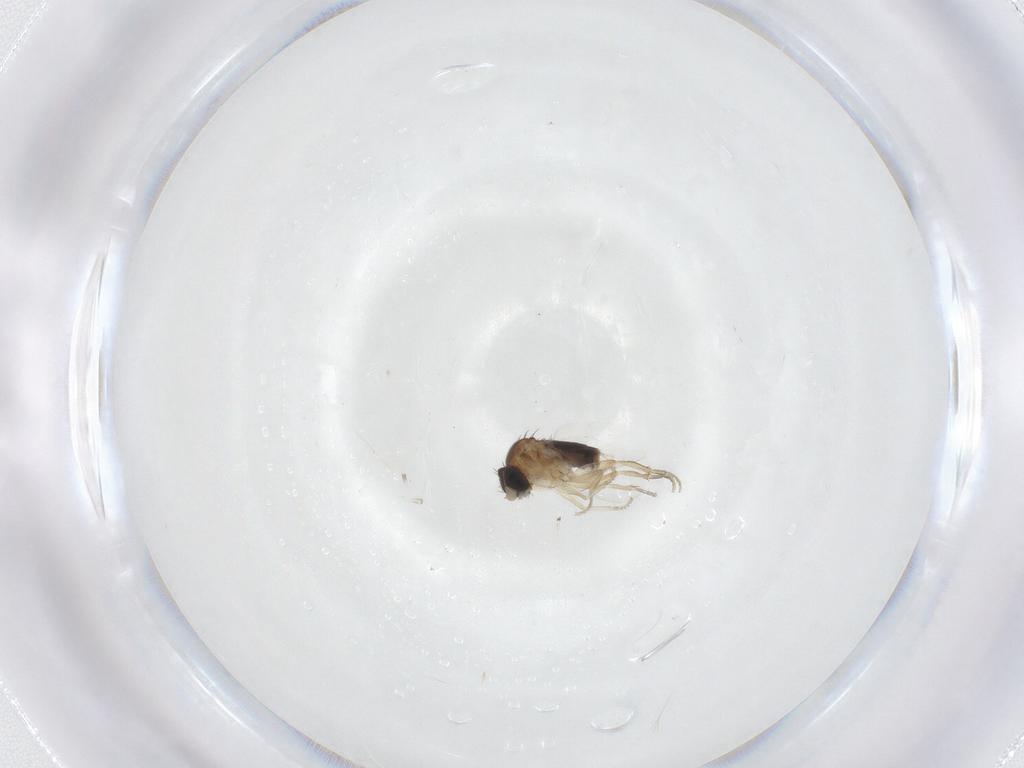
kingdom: Animalia
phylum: Arthropoda
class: Insecta
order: Diptera
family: Phoridae
